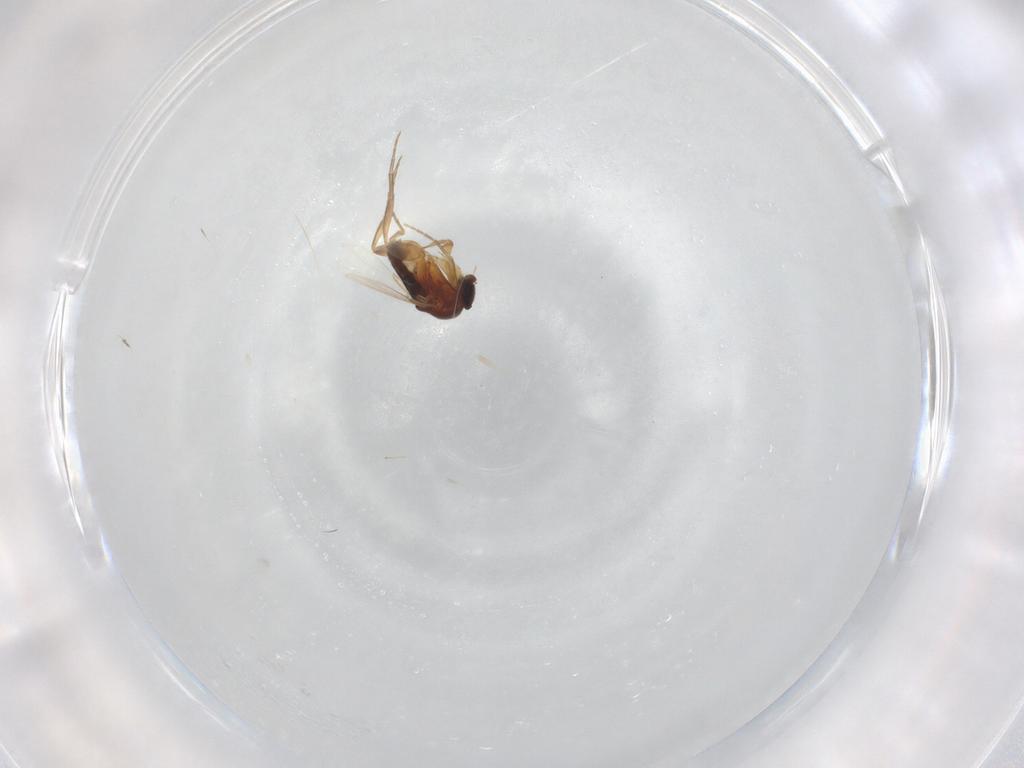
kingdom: Animalia
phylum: Arthropoda
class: Insecta
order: Diptera
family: Phoridae
